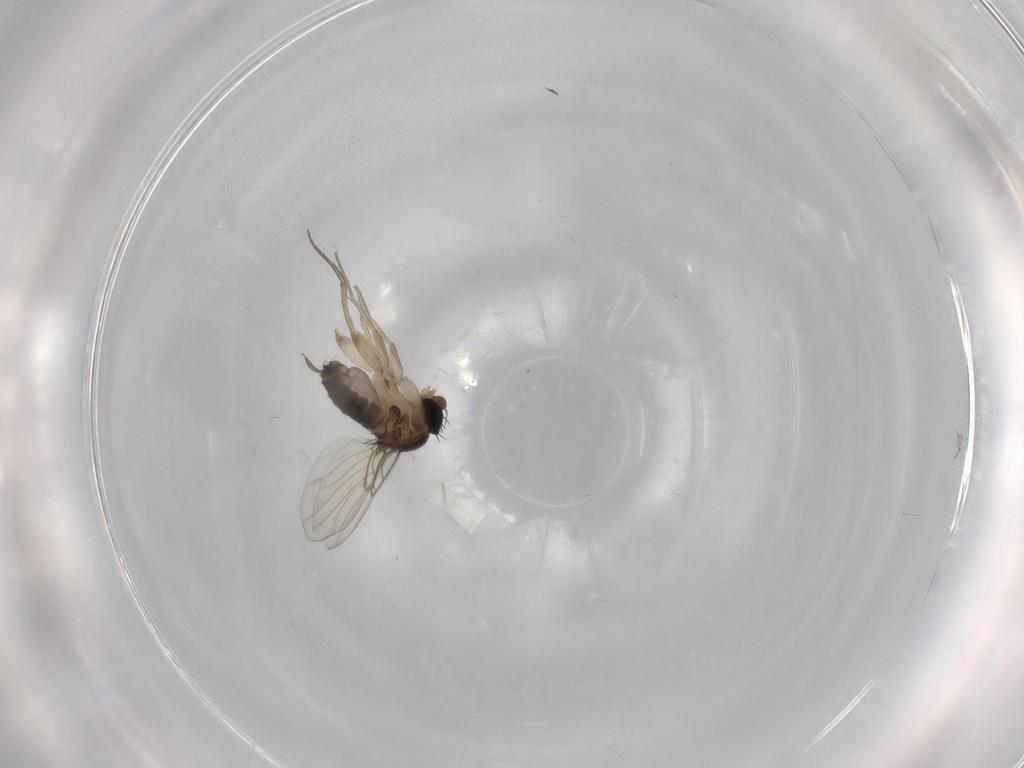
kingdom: Animalia
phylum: Arthropoda
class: Insecta
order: Diptera
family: Cecidomyiidae
